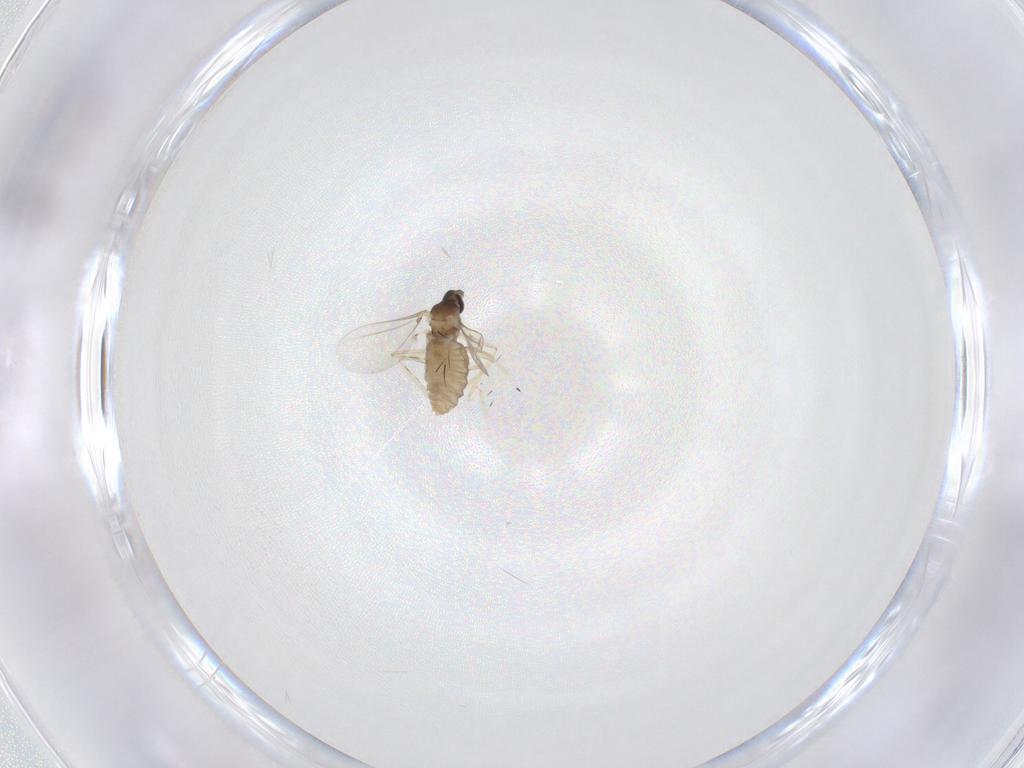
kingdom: Animalia
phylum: Arthropoda
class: Insecta
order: Diptera
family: Cecidomyiidae
